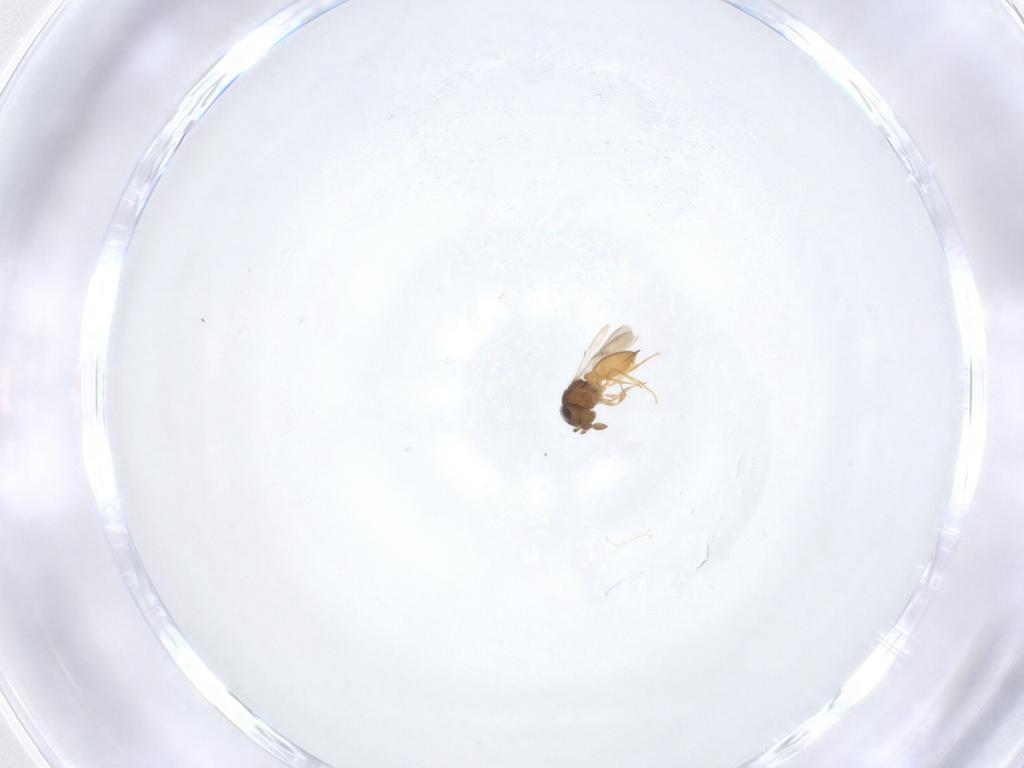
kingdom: Animalia
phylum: Arthropoda
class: Insecta
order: Hymenoptera
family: Scelionidae
